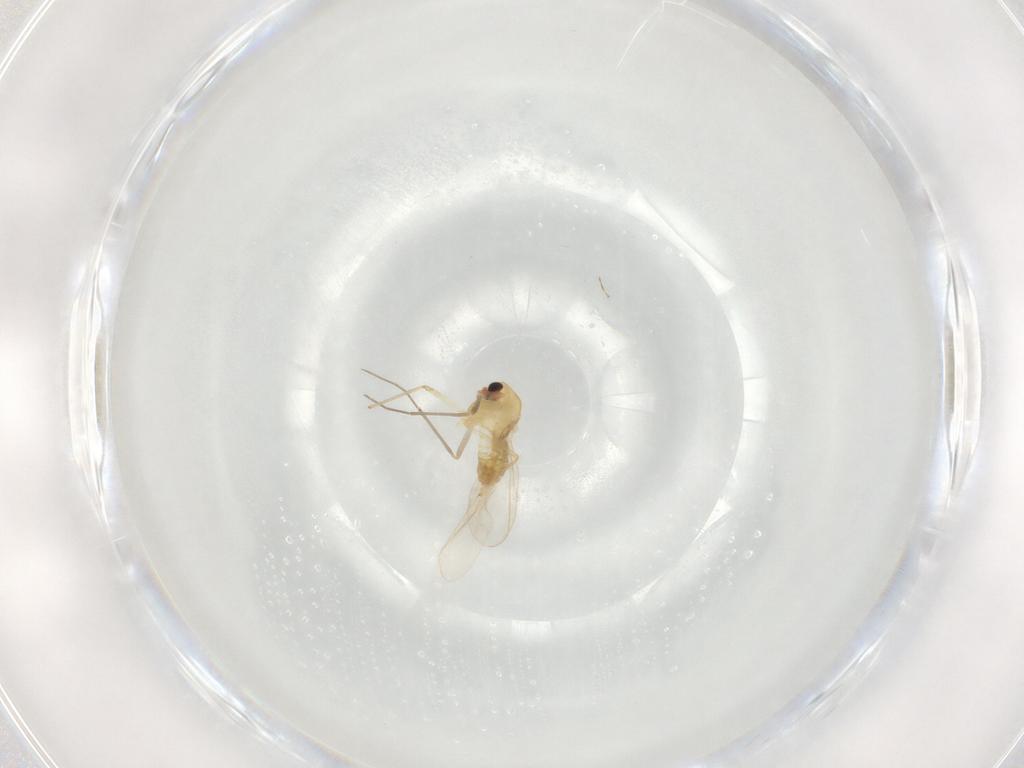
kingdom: Animalia
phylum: Arthropoda
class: Insecta
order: Diptera
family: Chironomidae
